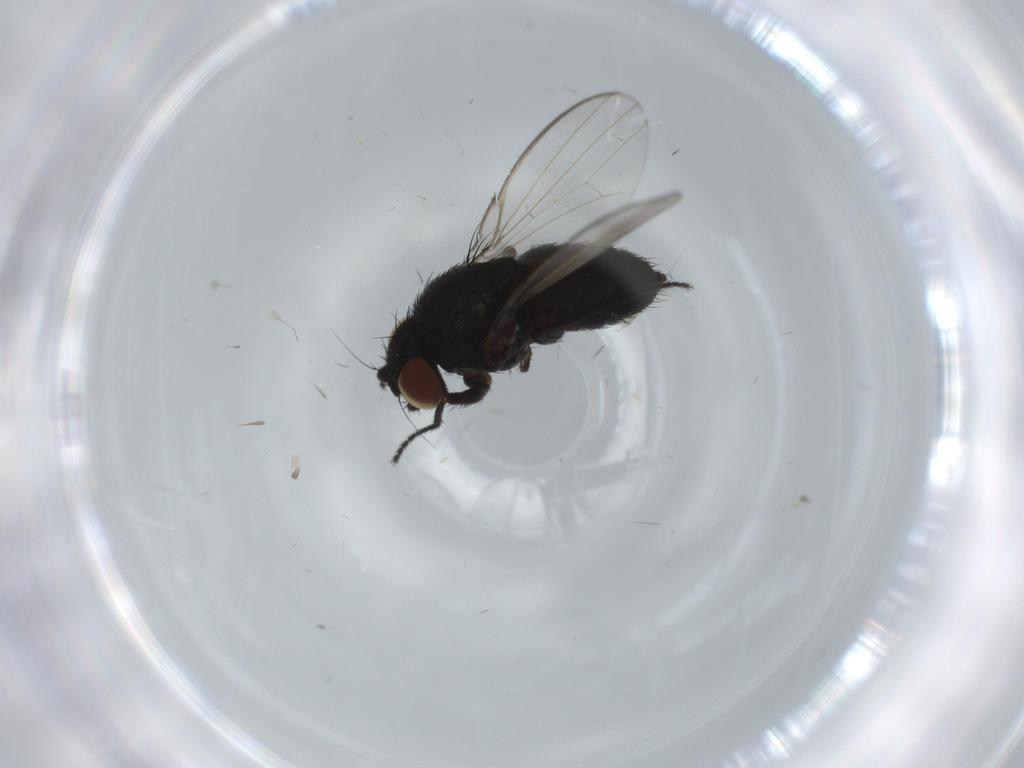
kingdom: Animalia
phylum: Arthropoda
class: Insecta
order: Diptera
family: Milichiidae
